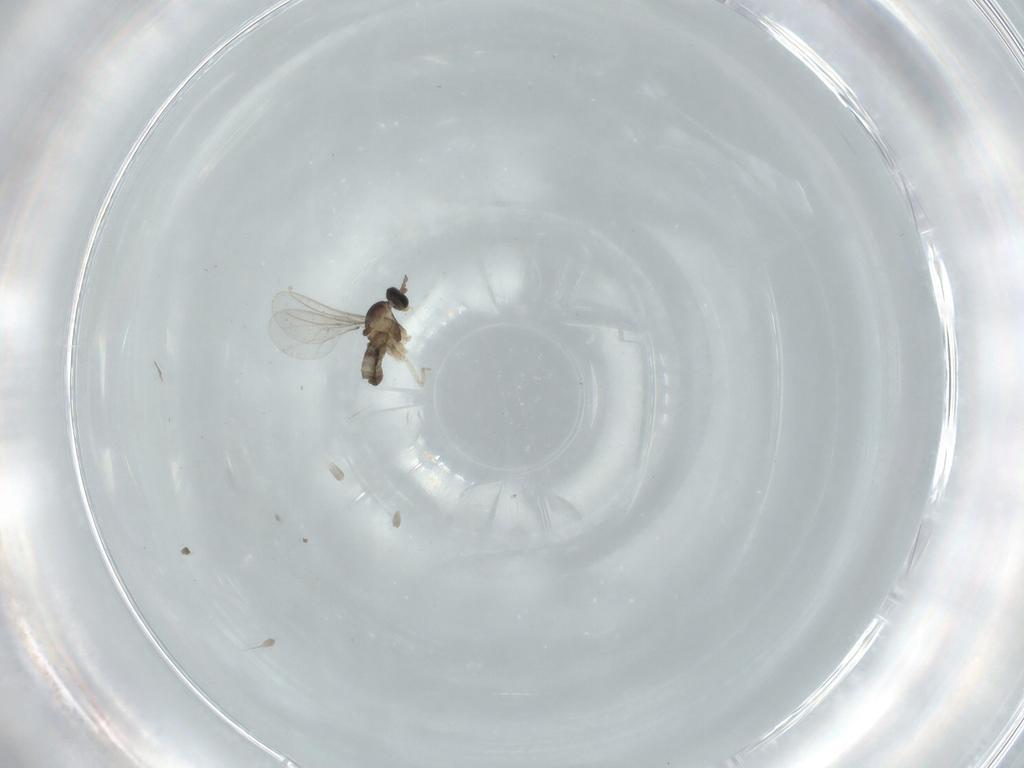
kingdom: Animalia
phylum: Arthropoda
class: Insecta
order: Diptera
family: Cecidomyiidae
